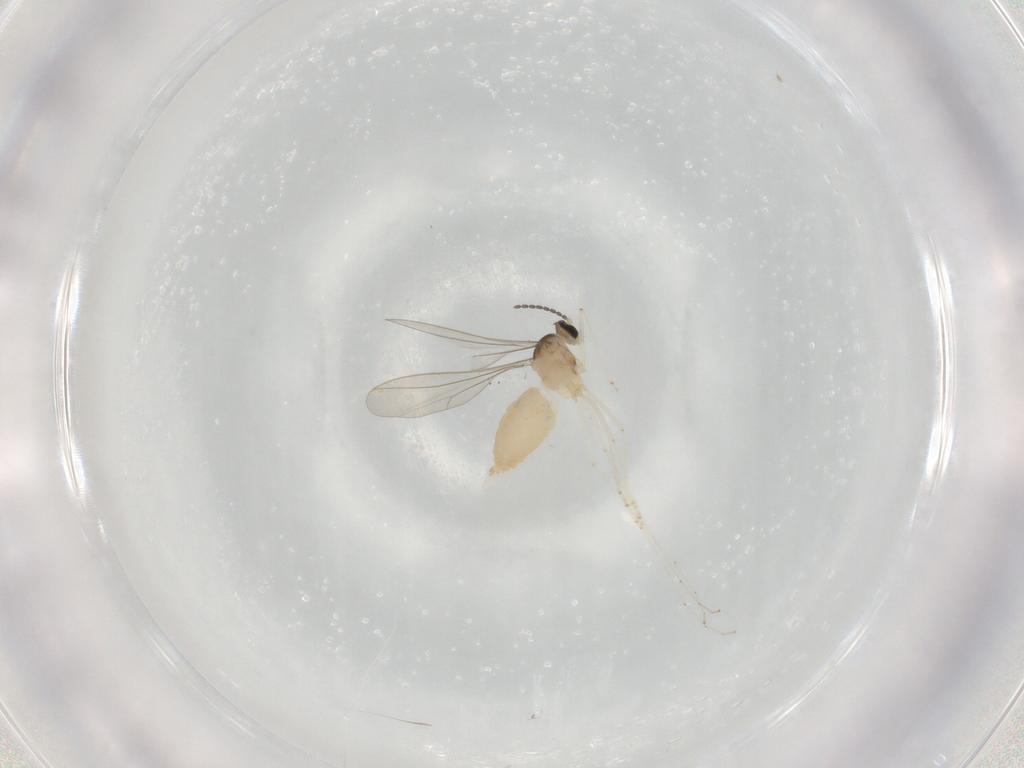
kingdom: Animalia
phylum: Arthropoda
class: Insecta
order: Diptera
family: Cecidomyiidae
